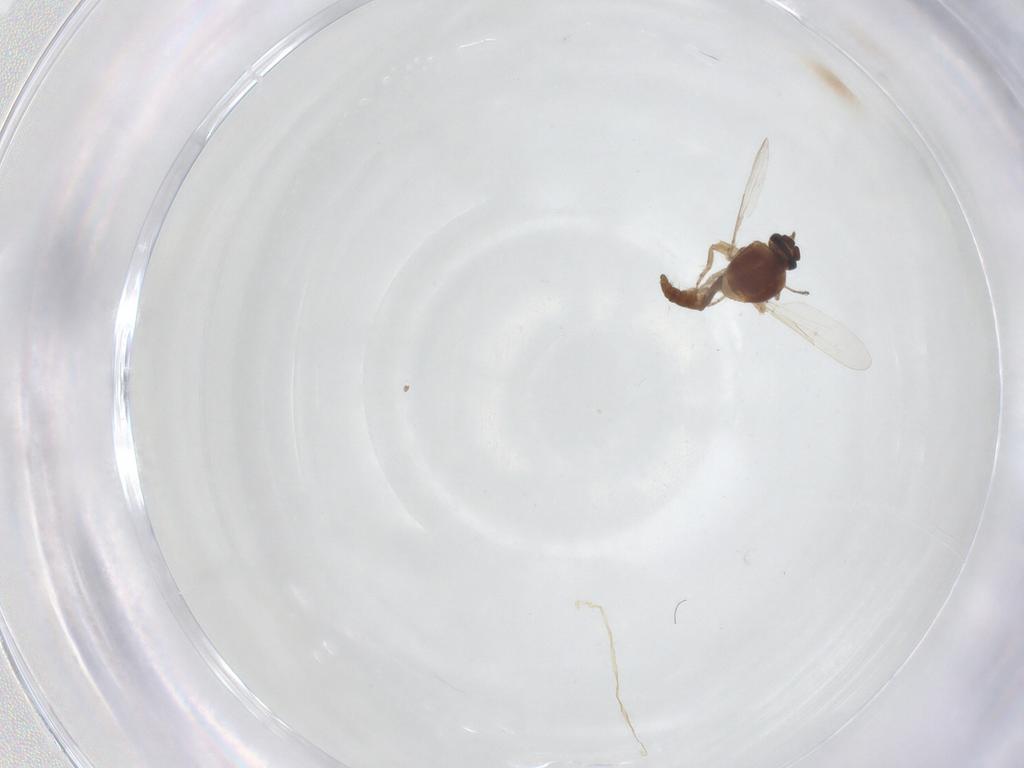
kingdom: Animalia
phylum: Arthropoda
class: Insecta
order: Diptera
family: Ceratopogonidae
